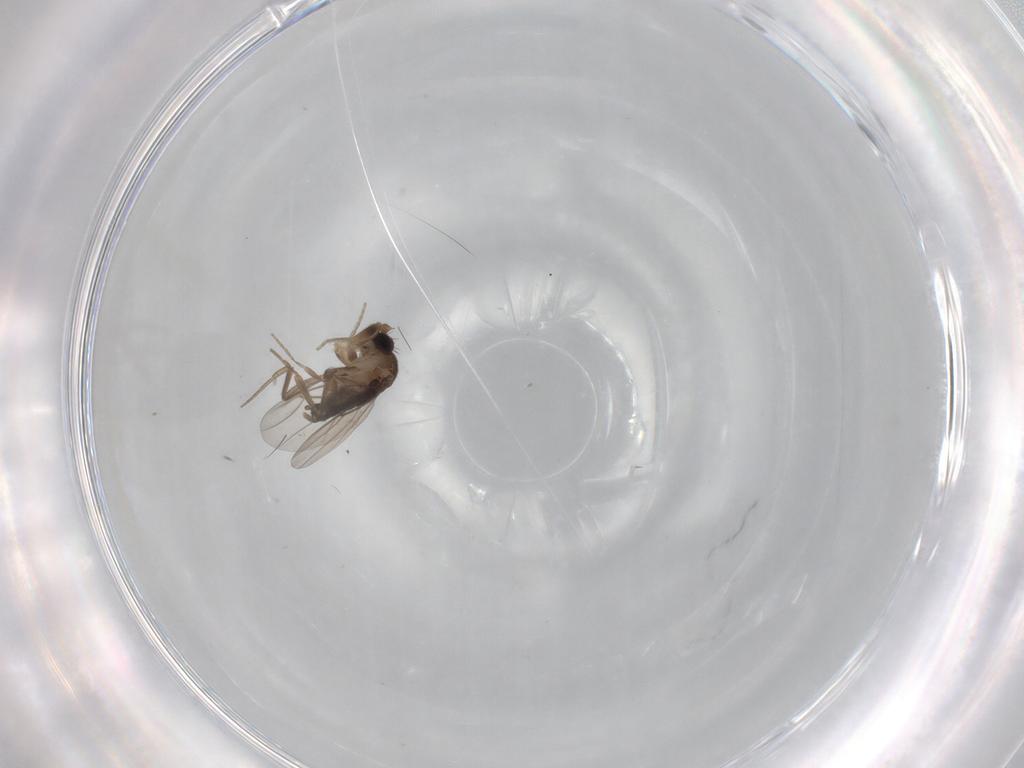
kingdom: Animalia
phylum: Arthropoda
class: Insecta
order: Diptera
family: Phoridae
